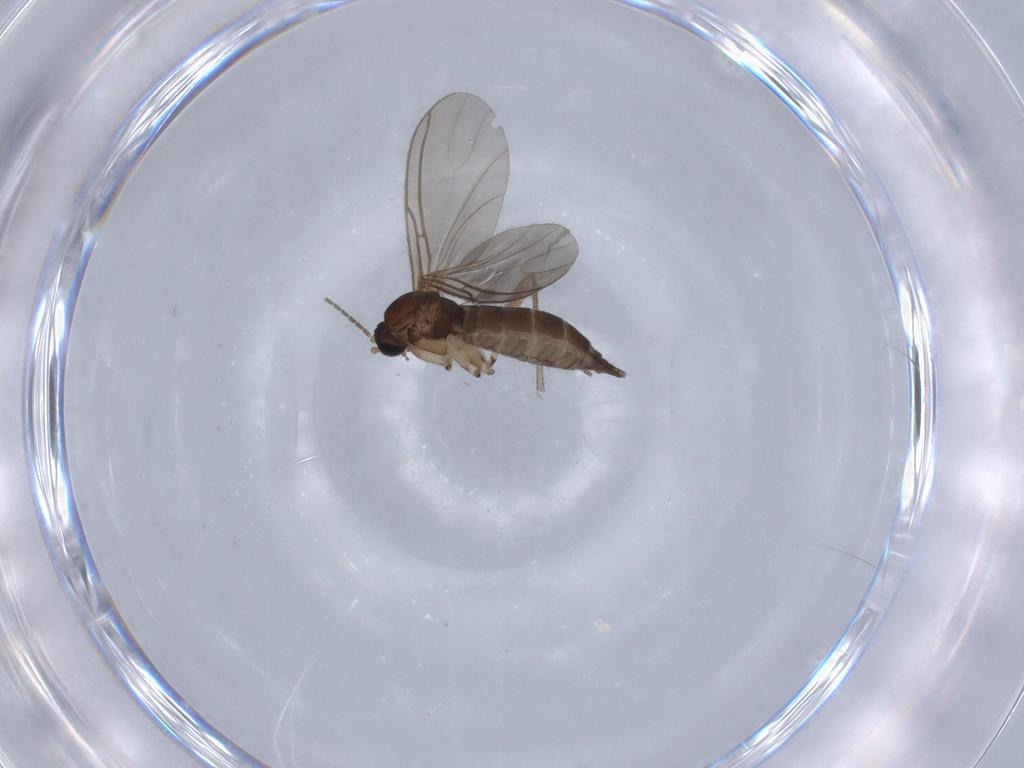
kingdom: Animalia
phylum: Arthropoda
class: Insecta
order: Diptera
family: Sciaridae
